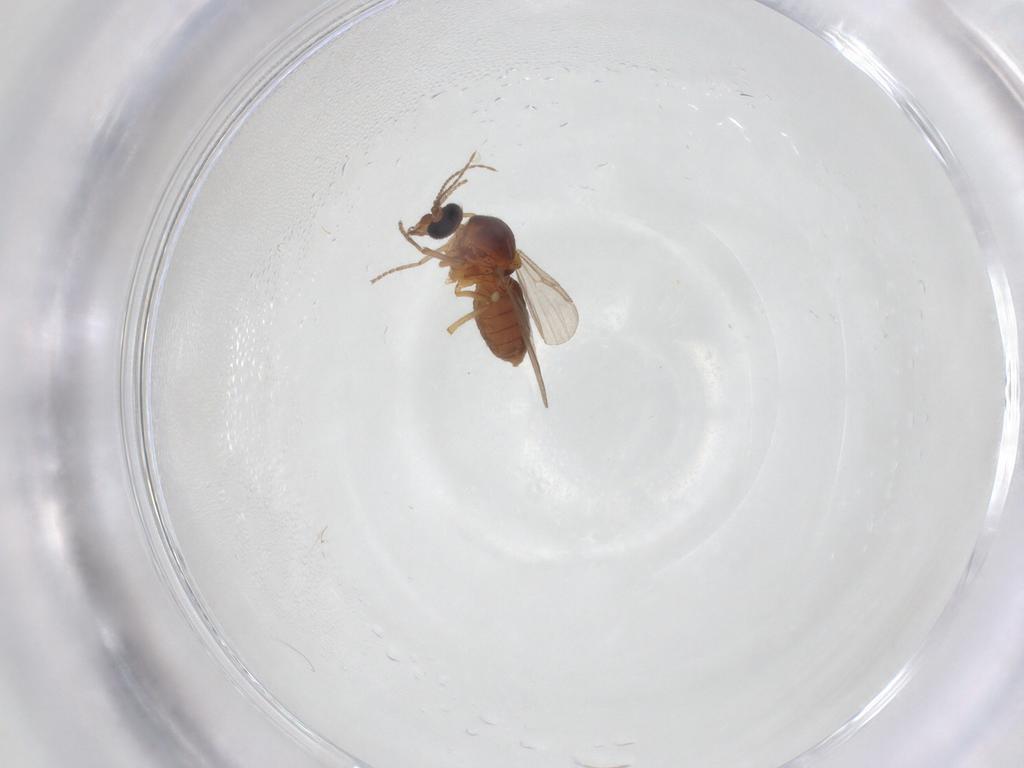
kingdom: Animalia
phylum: Arthropoda
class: Insecta
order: Diptera
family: Chironomidae
